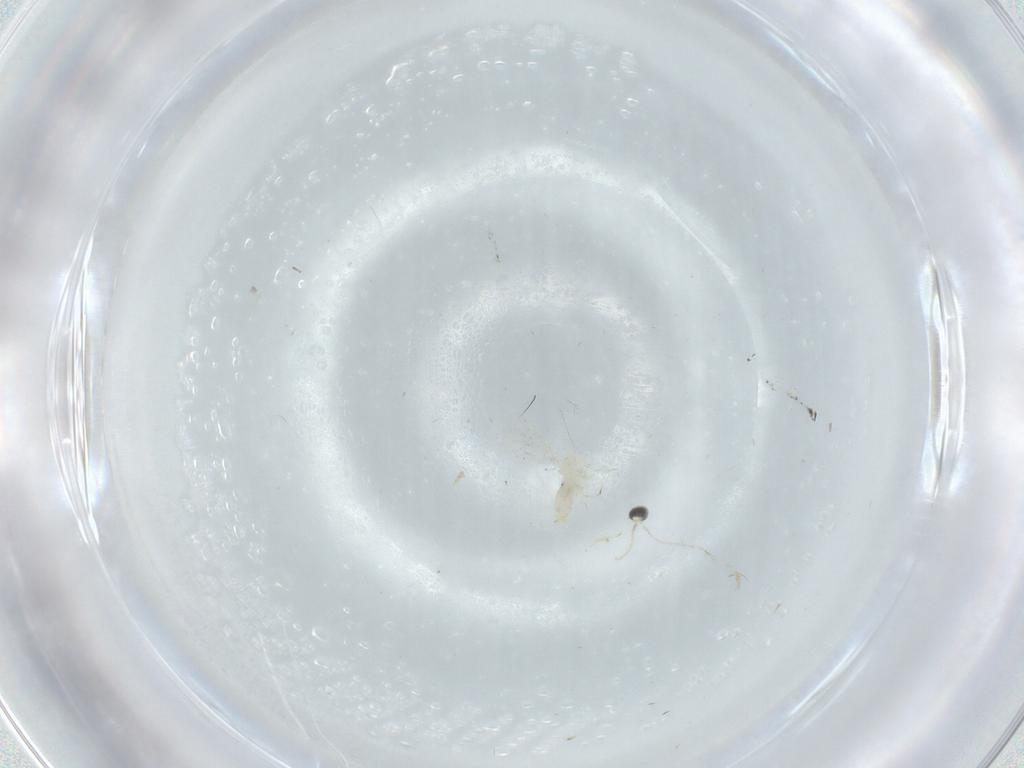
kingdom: Animalia
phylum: Arthropoda
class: Insecta
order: Diptera
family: Cecidomyiidae
